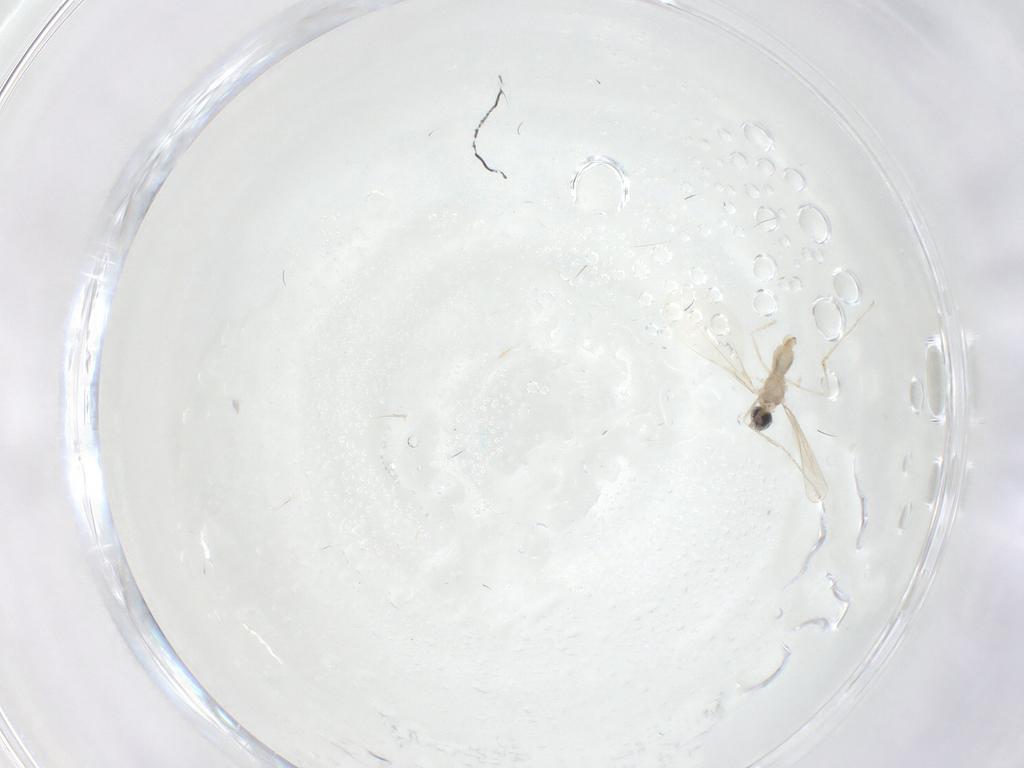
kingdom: Animalia
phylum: Arthropoda
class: Insecta
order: Diptera
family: Cecidomyiidae
